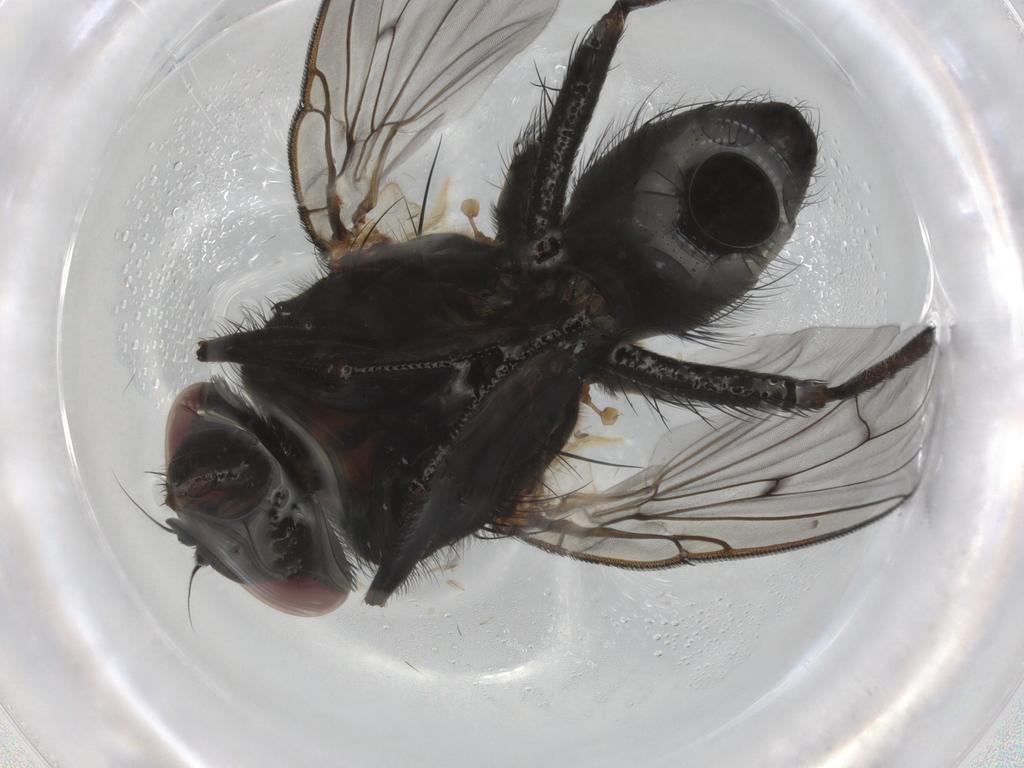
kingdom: Animalia
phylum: Arthropoda
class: Insecta
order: Diptera
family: Muscidae
